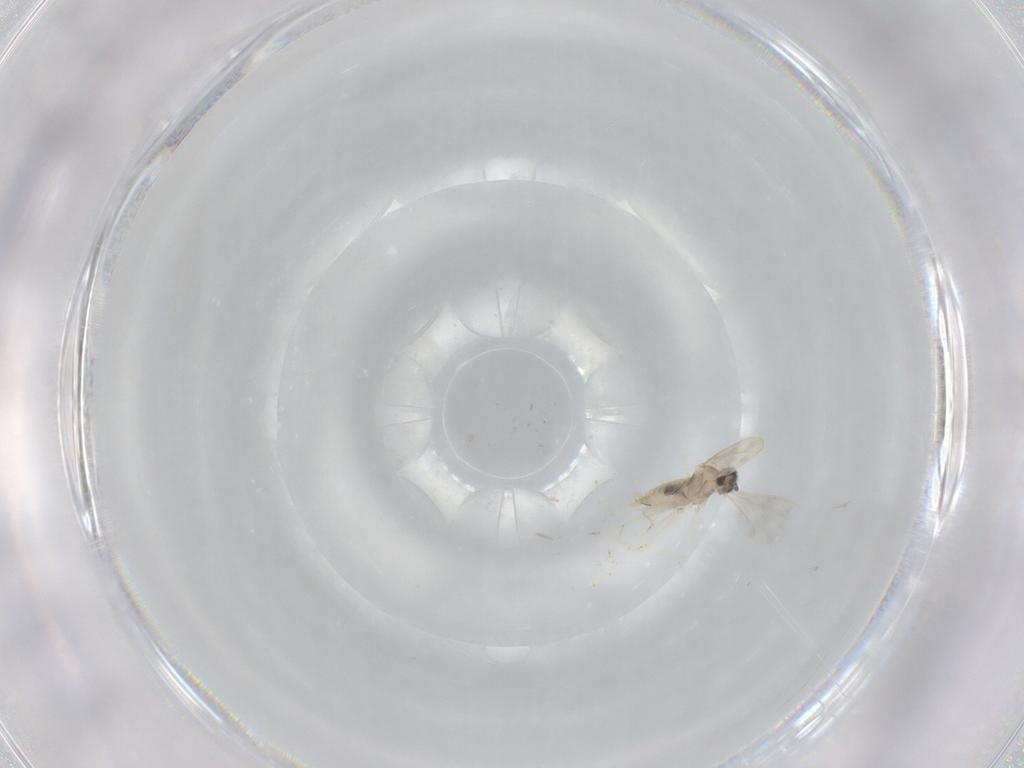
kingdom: Animalia
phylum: Arthropoda
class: Insecta
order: Diptera
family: Cecidomyiidae
